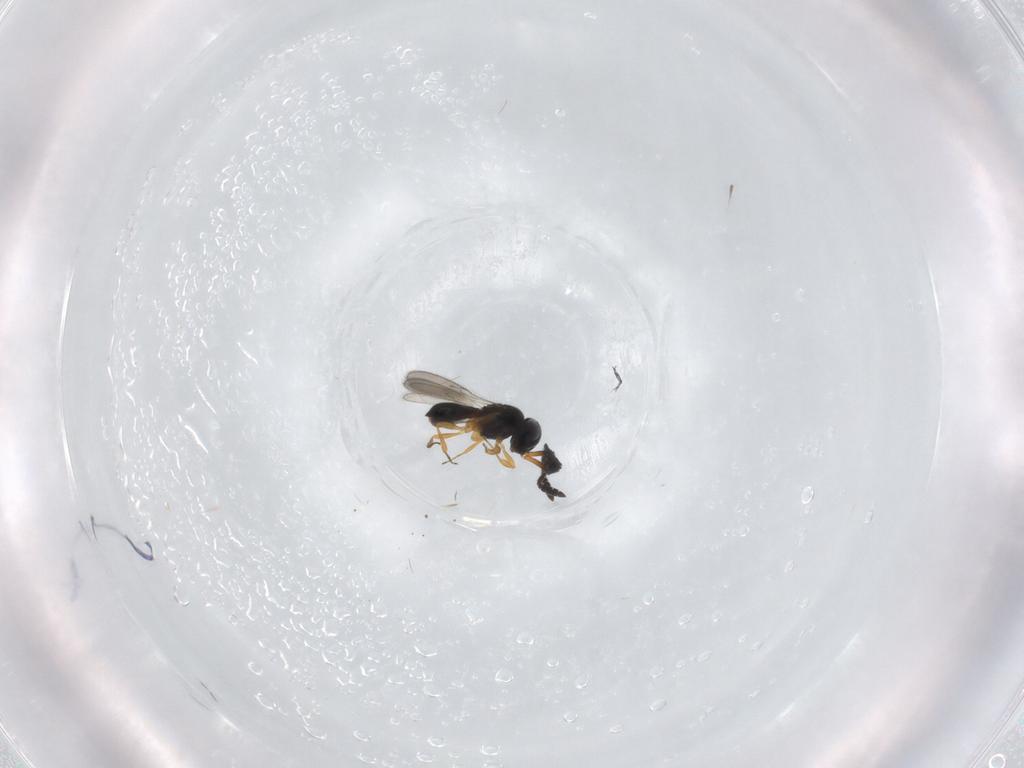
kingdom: Animalia
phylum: Arthropoda
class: Insecta
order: Hymenoptera
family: Scelionidae
